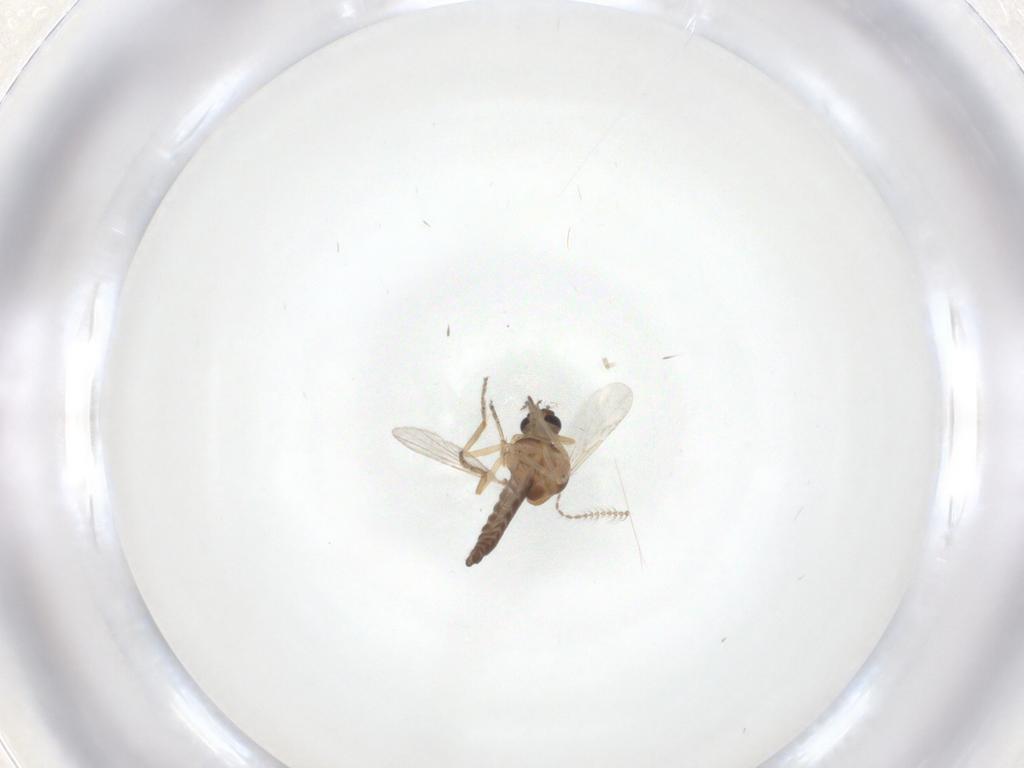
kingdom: Animalia
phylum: Arthropoda
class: Insecta
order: Diptera
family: Ceratopogonidae
